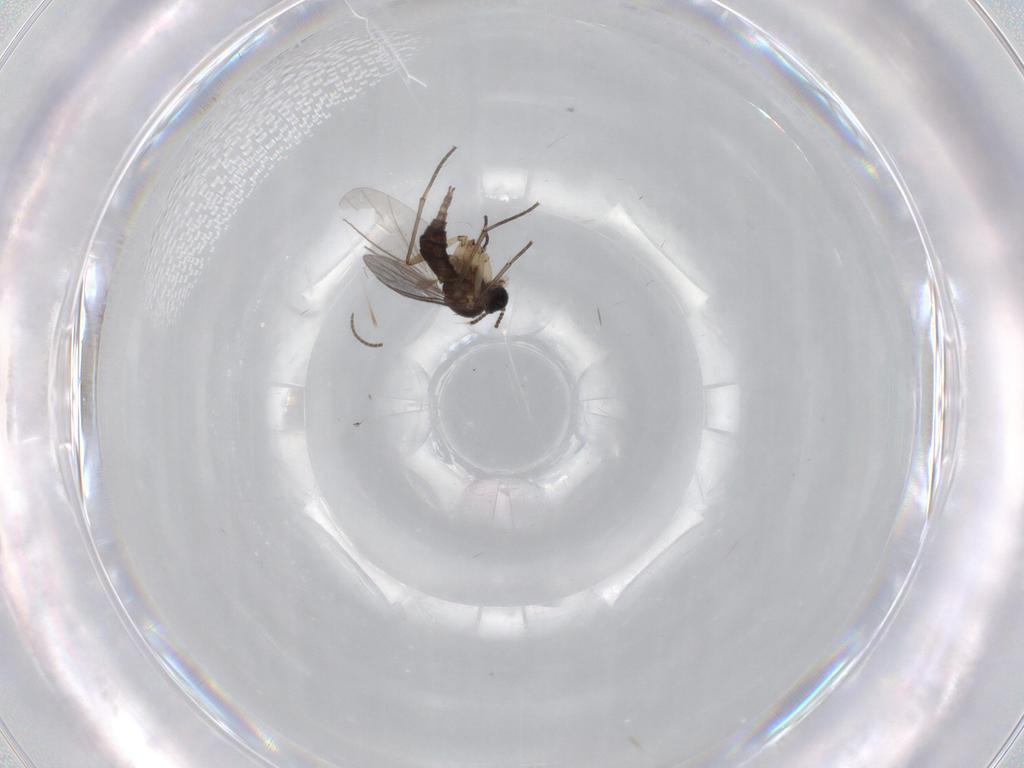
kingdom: Animalia
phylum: Arthropoda
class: Insecta
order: Diptera
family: Sciaridae
